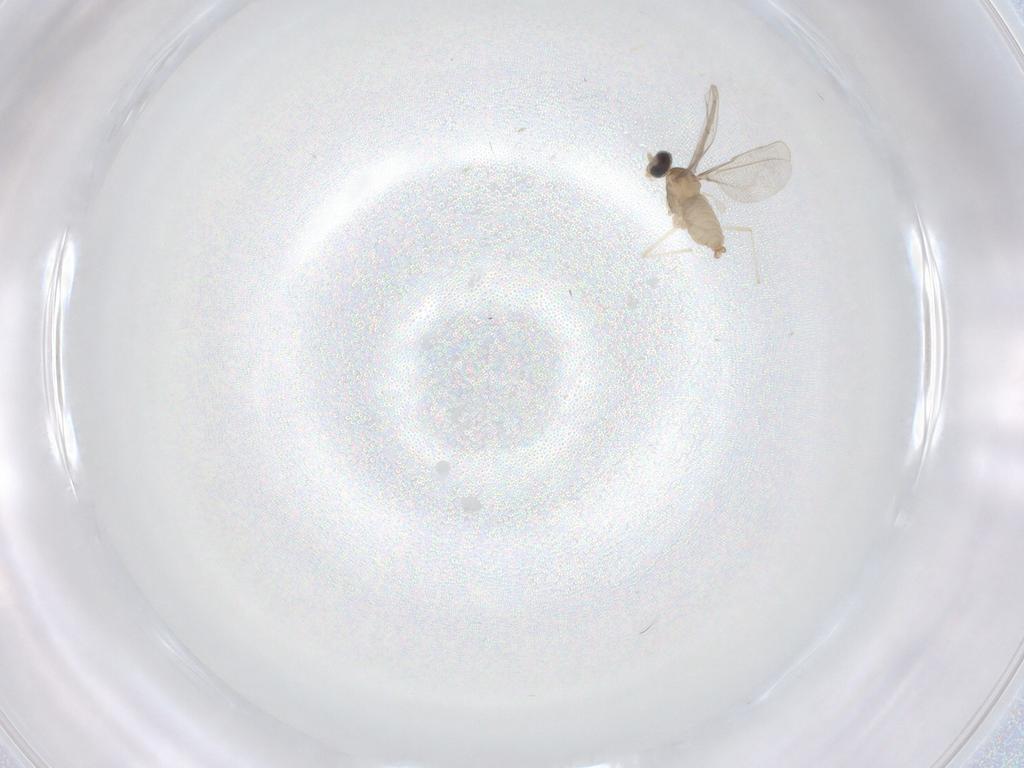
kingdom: Animalia
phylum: Arthropoda
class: Insecta
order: Diptera
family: Cecidomyiidae
